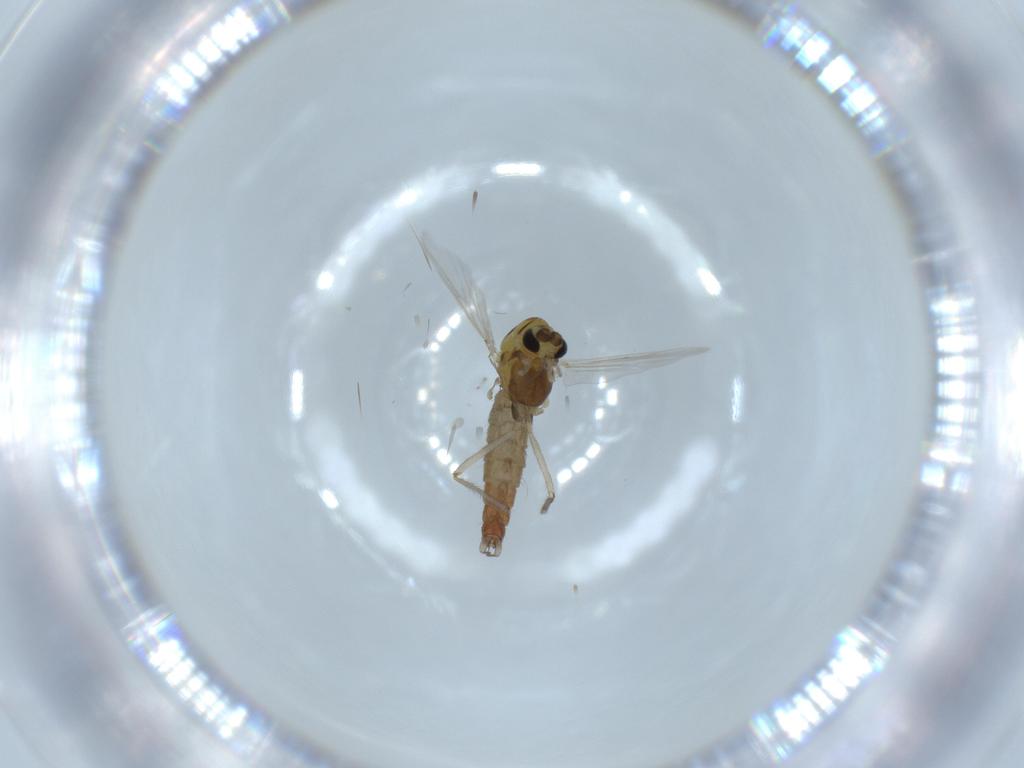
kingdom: Animalia
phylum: Arthropoda
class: Insecta
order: Diptera
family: Chironomidae
